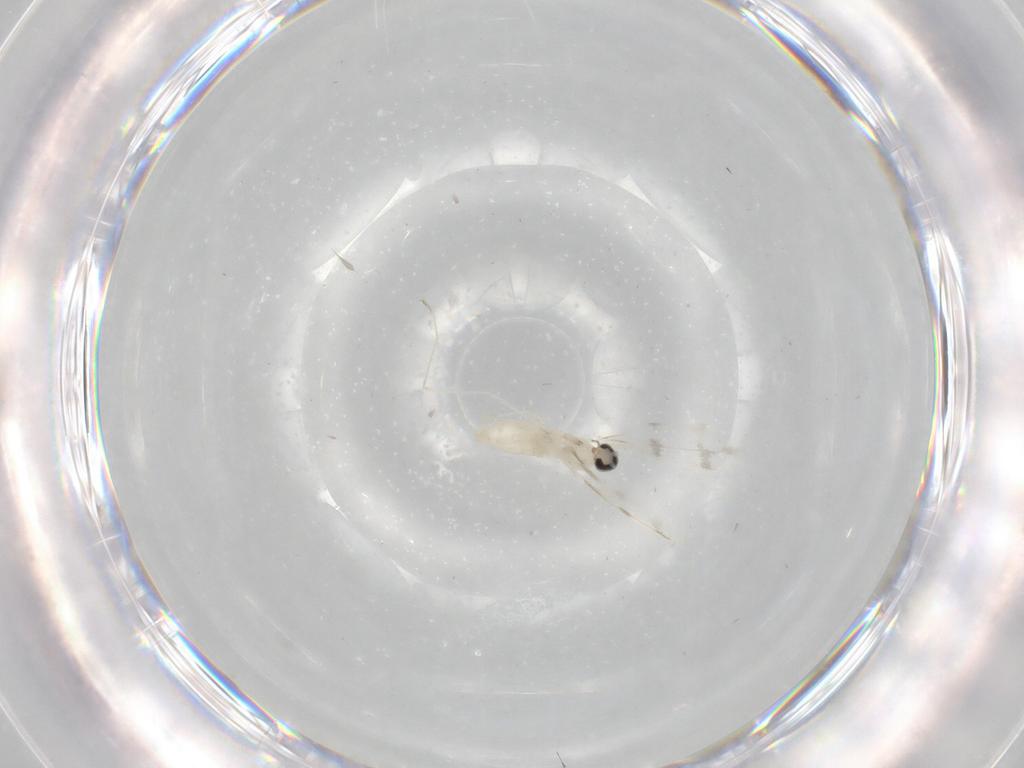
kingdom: Animalia
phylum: Arthropoda
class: Insecta
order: Diptera
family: Cecidomyiidae
